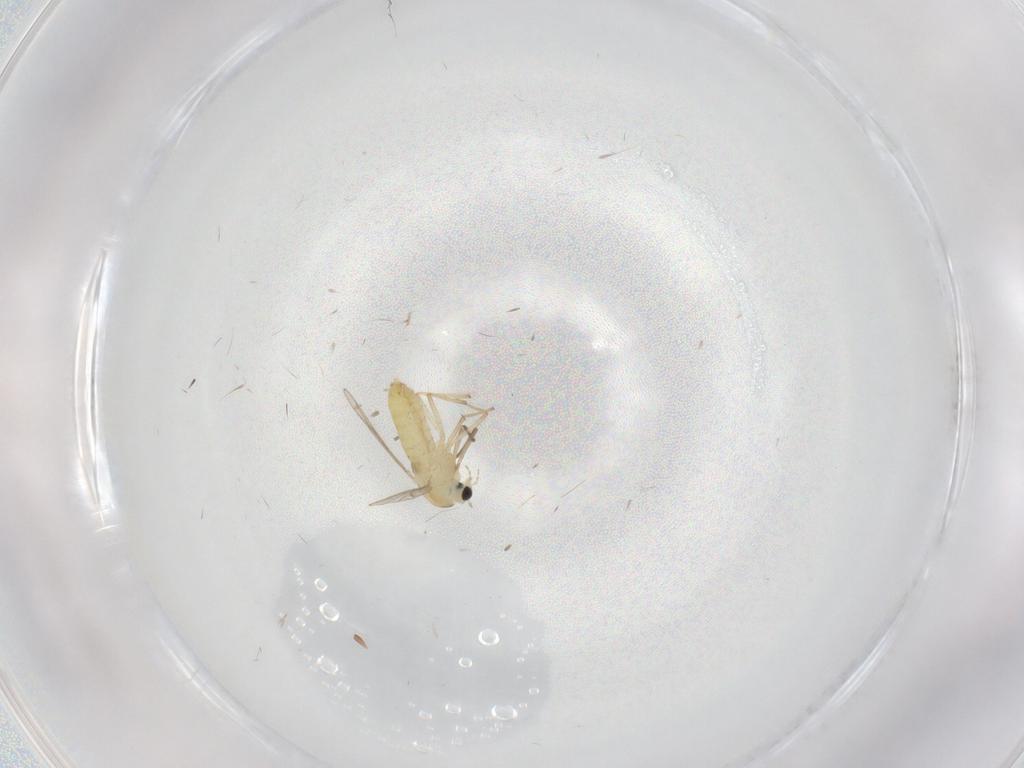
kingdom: Animalia
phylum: Arthropoda
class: Insecta
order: Diptera
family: Chironomidae
